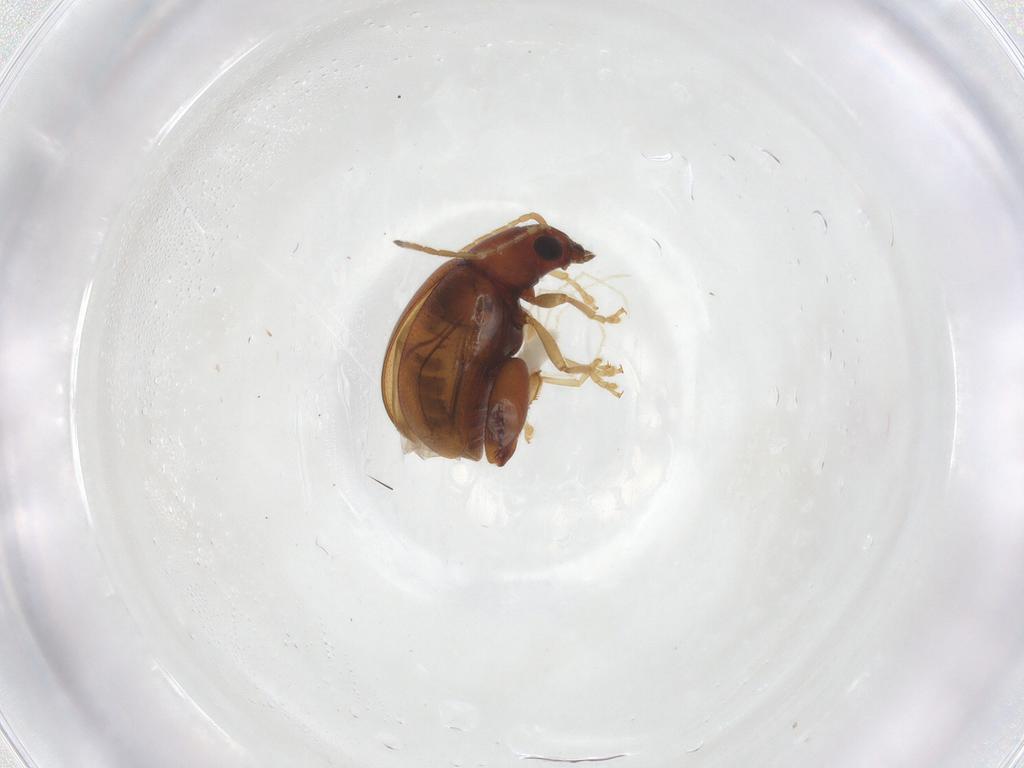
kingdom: Animalia
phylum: Arthropoda
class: Insecta
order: Coleoptera
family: Chrysomelidae
